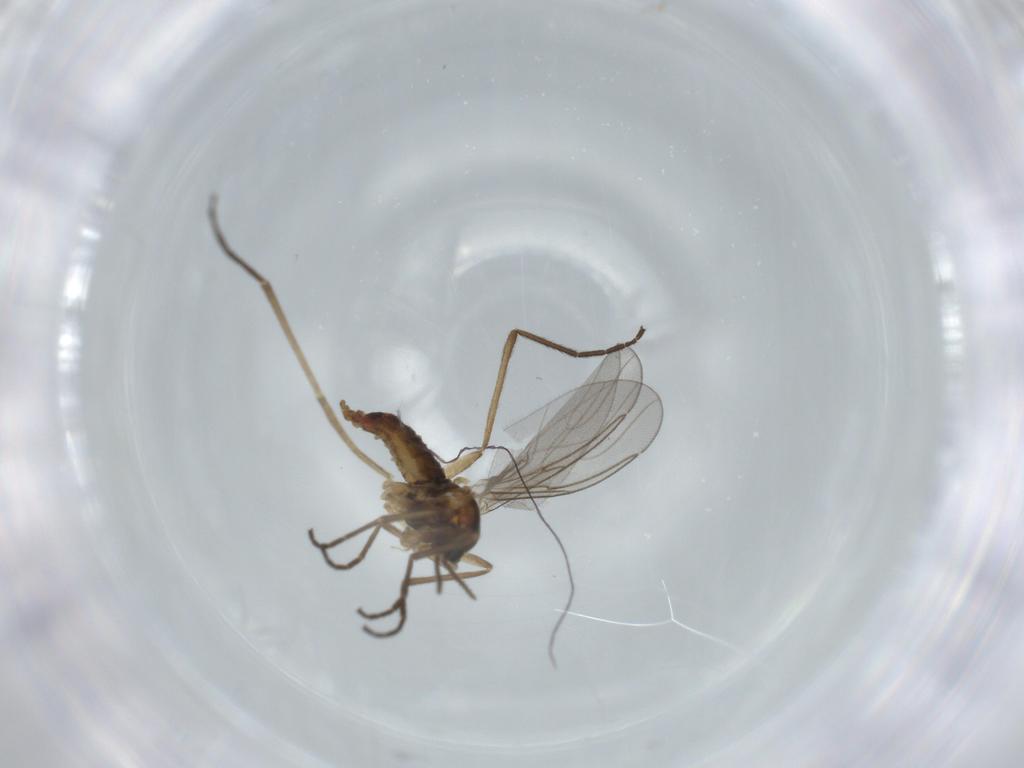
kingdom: Animalia
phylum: Arthropoda
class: Insecta
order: Diptera
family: Cecidomyiidae
